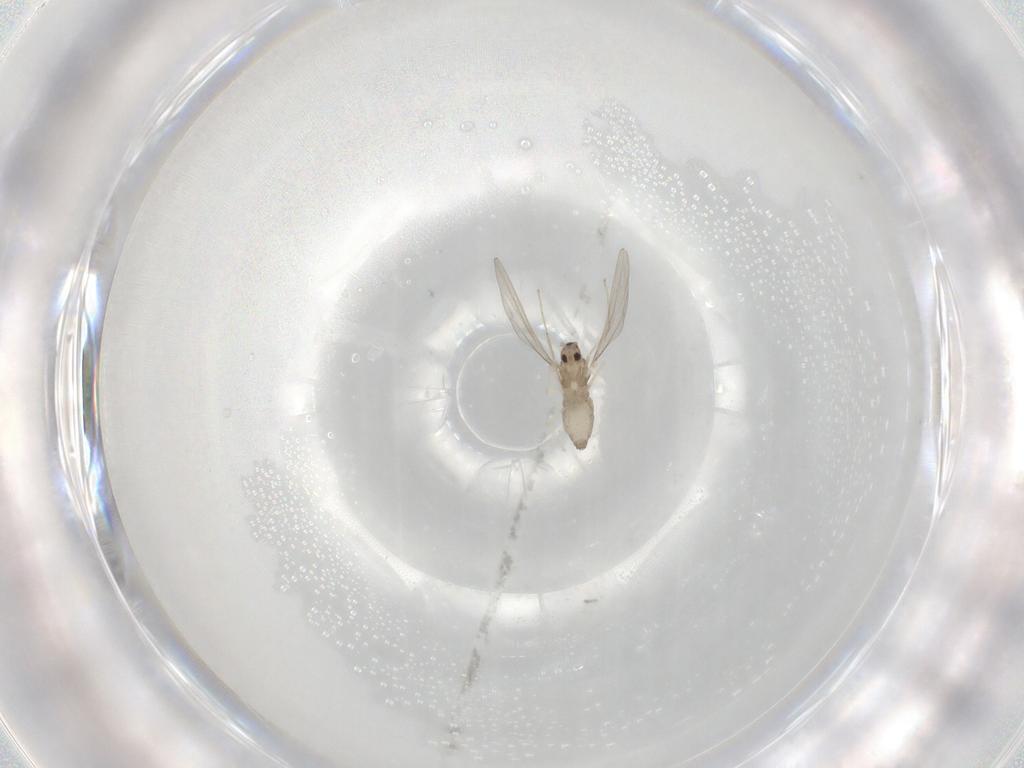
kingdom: Animalia
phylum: Arthropoda
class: Insecta
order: Diptera
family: Cecidomyiidae
